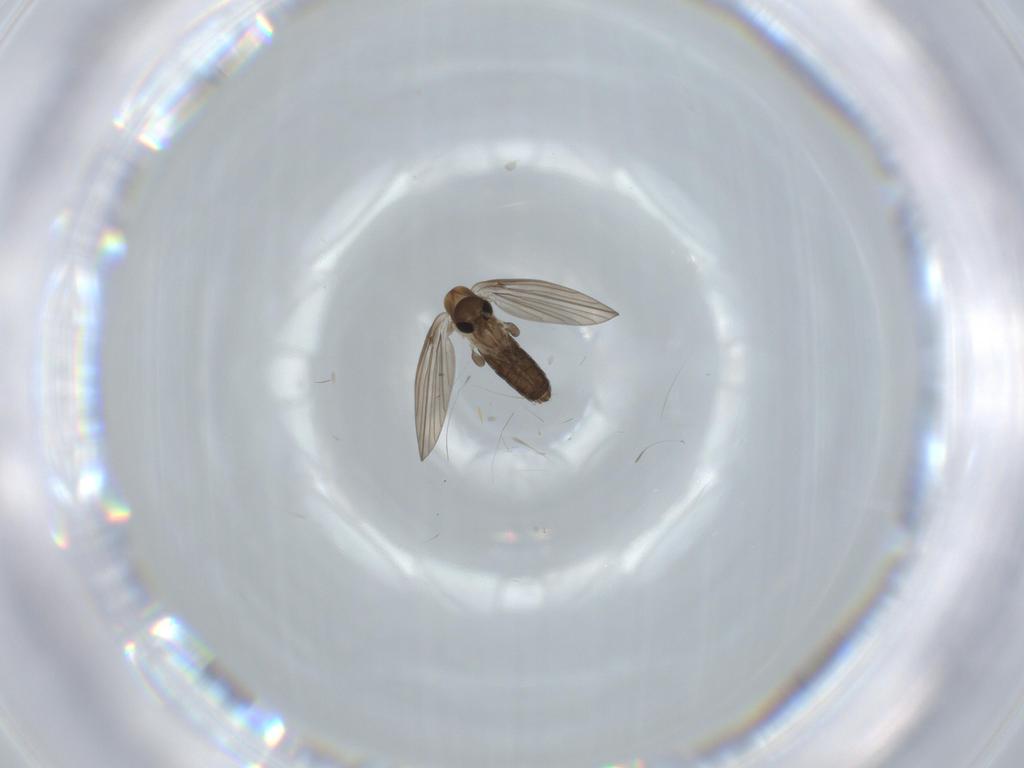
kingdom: Animalia
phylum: Arthropoda
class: Insecta
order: Diptera
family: Psychodidae
